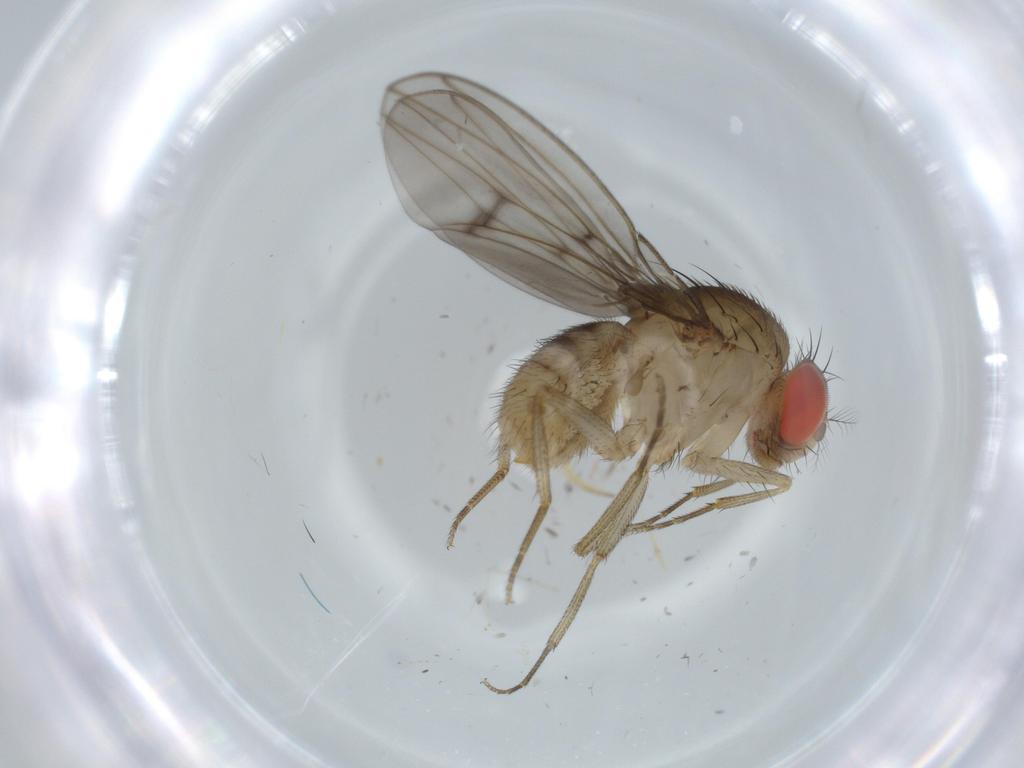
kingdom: Animalia
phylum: Arthropoda
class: Insecta
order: Diptera
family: Drosophilidae
